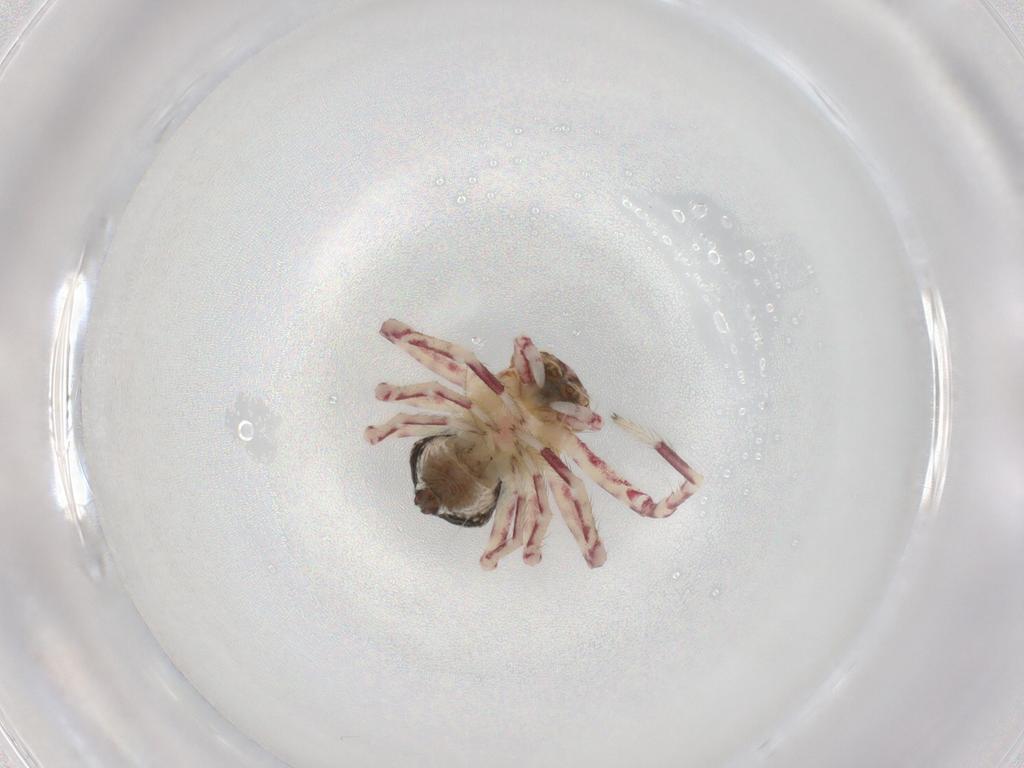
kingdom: Animalia
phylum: Arthropoda
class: Arachnida
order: Araneae
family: Thomisidae
